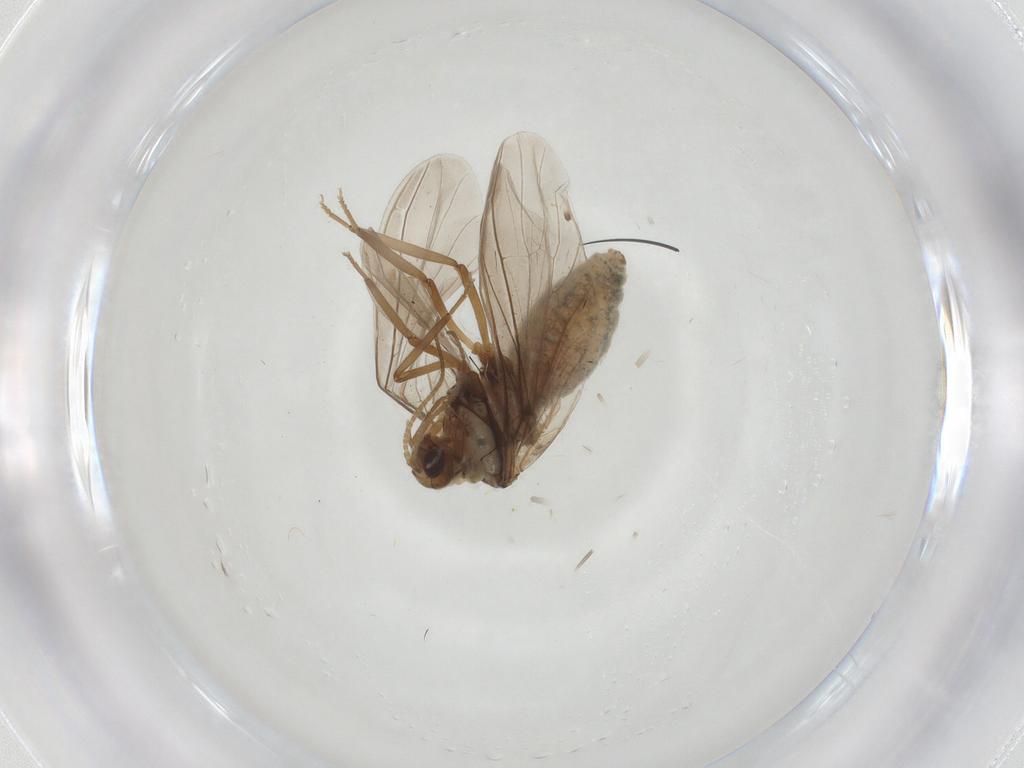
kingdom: Animalia
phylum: Arthropoda
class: Insecta
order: Neuroptera
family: Coniopterygidae
